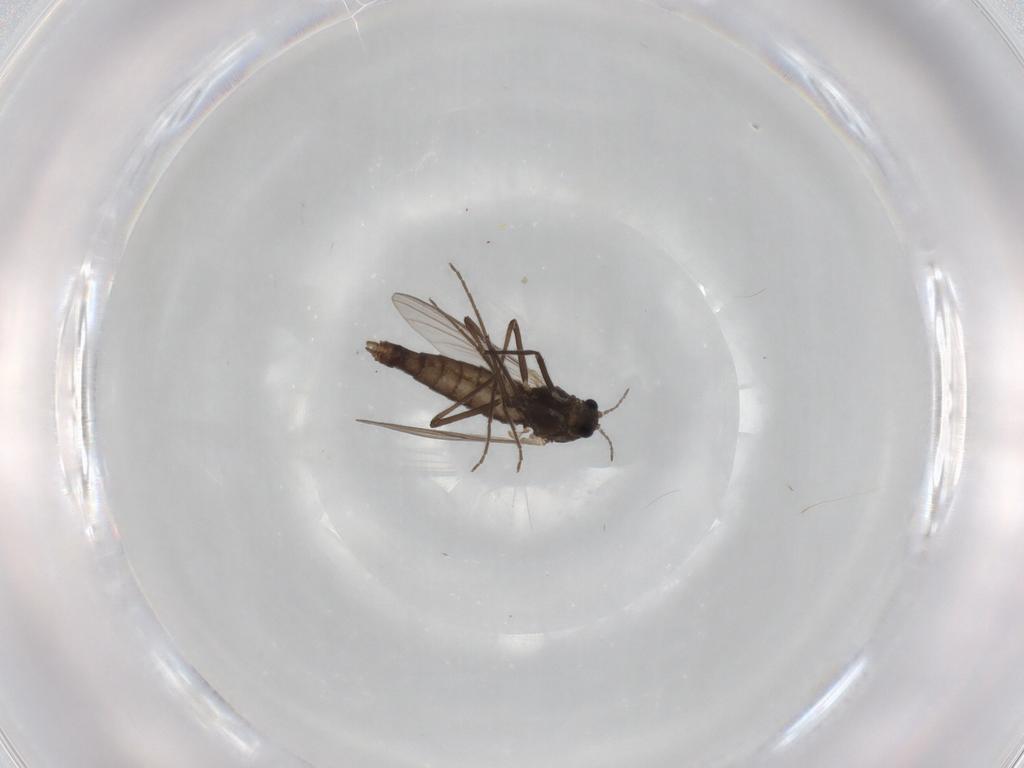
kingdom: Animalia
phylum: Arthropoda
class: Insecta
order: Diptera
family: Chironomidae
